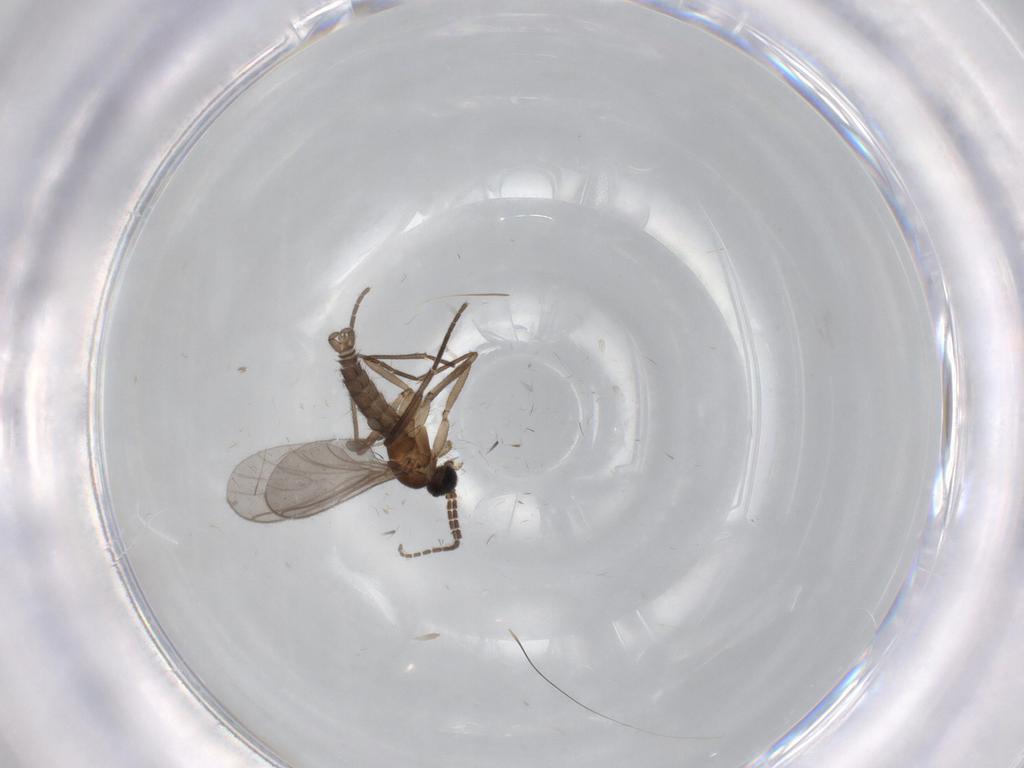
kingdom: Animalia
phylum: Arthropoda
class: Insecta
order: Diptera
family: Sciaridae
